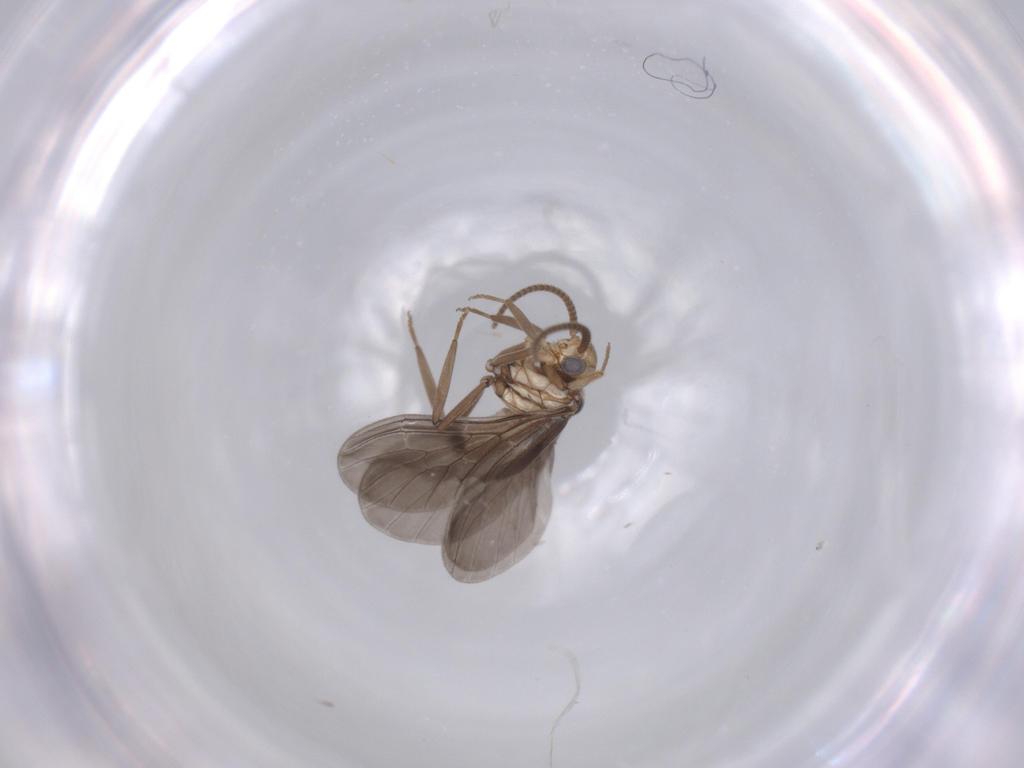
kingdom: Animalia
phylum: Arthropoda
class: Insecta
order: Neuroptera
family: Coniopterygidae
